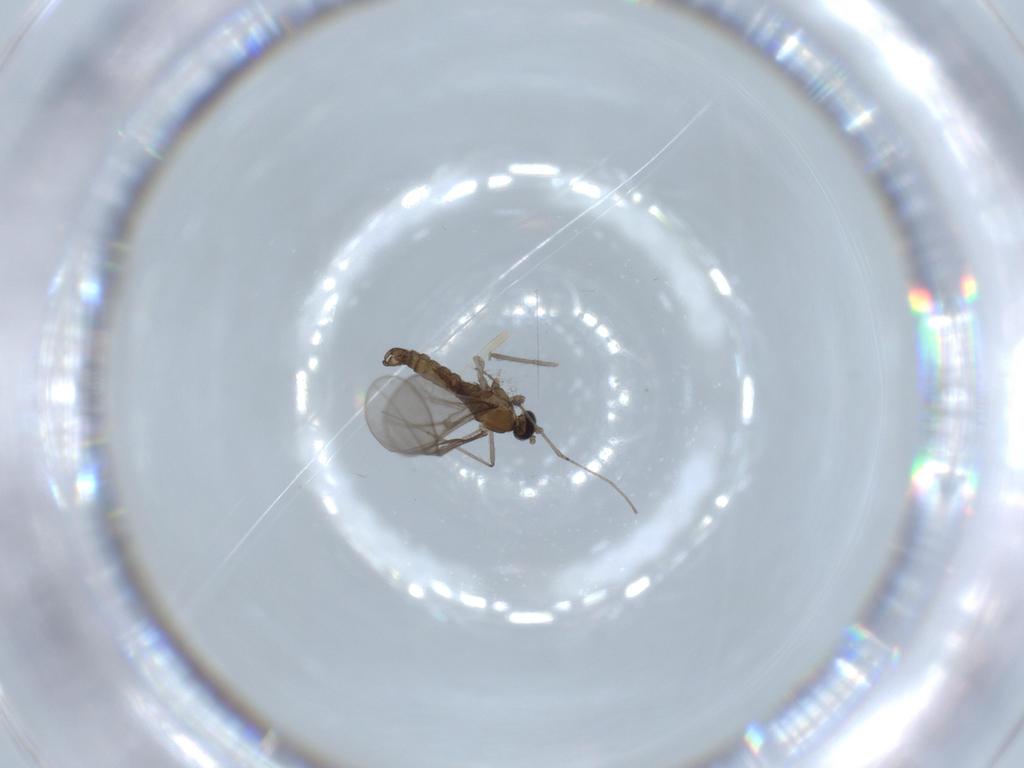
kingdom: Animalia
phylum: Arthropoda
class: Insecta
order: Diptera
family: Cecidomyiidae
